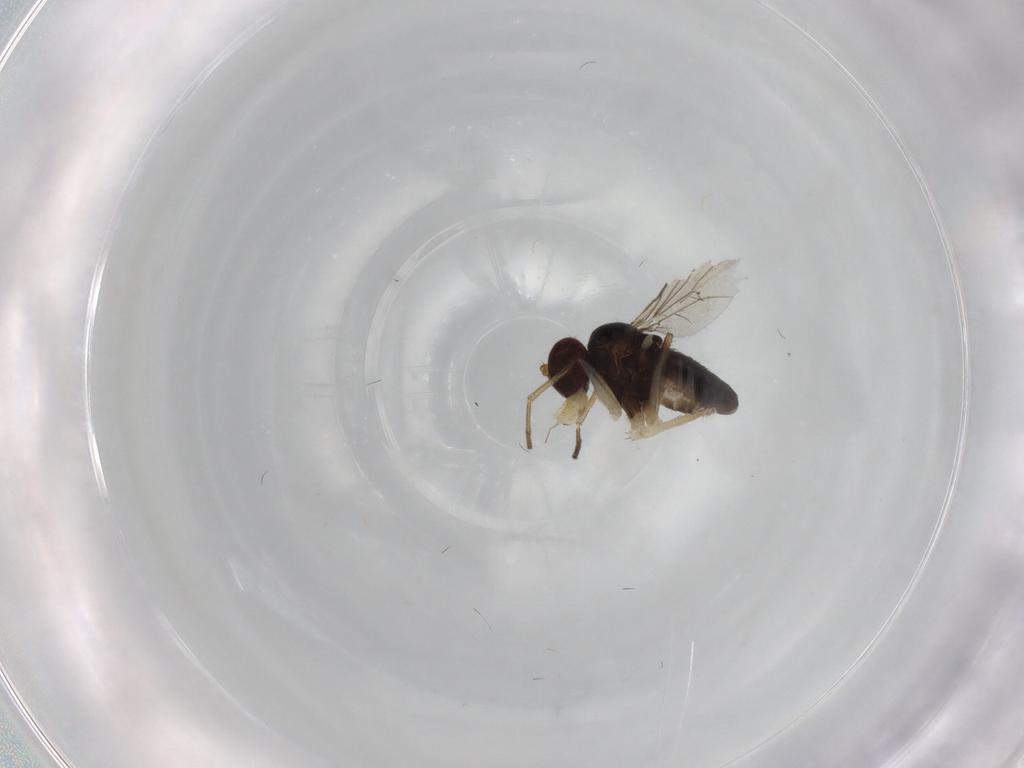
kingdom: Animalia
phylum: Arthropoda
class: Insecta
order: Diptera
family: Dolichopodidae
